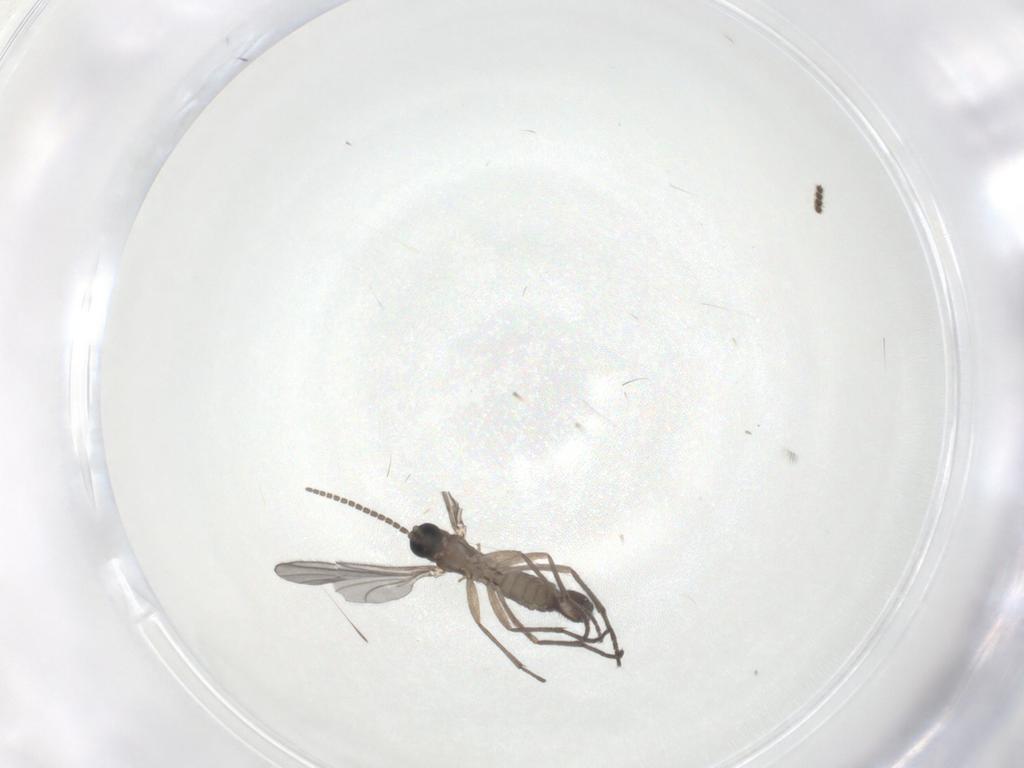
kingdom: Animalia
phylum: Arthropoda
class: Insecta
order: Diptera
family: Sciaridae
